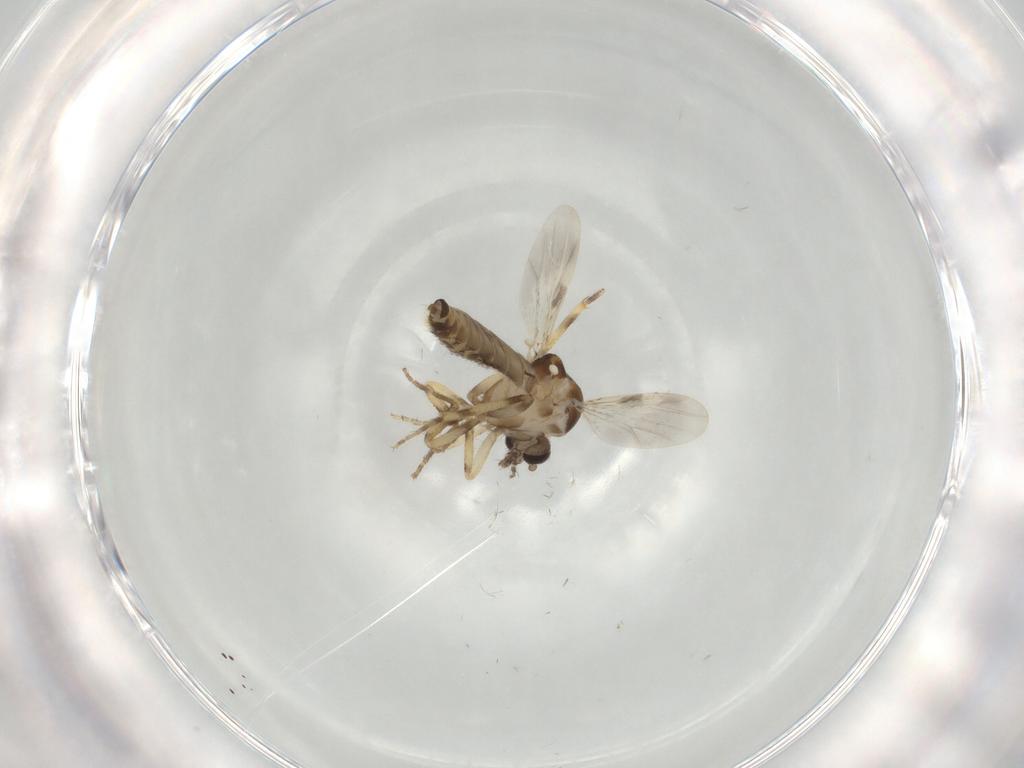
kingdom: Animalia
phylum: Arthropoda
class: Insecta
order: Diptera
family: Ceratopogonidae
